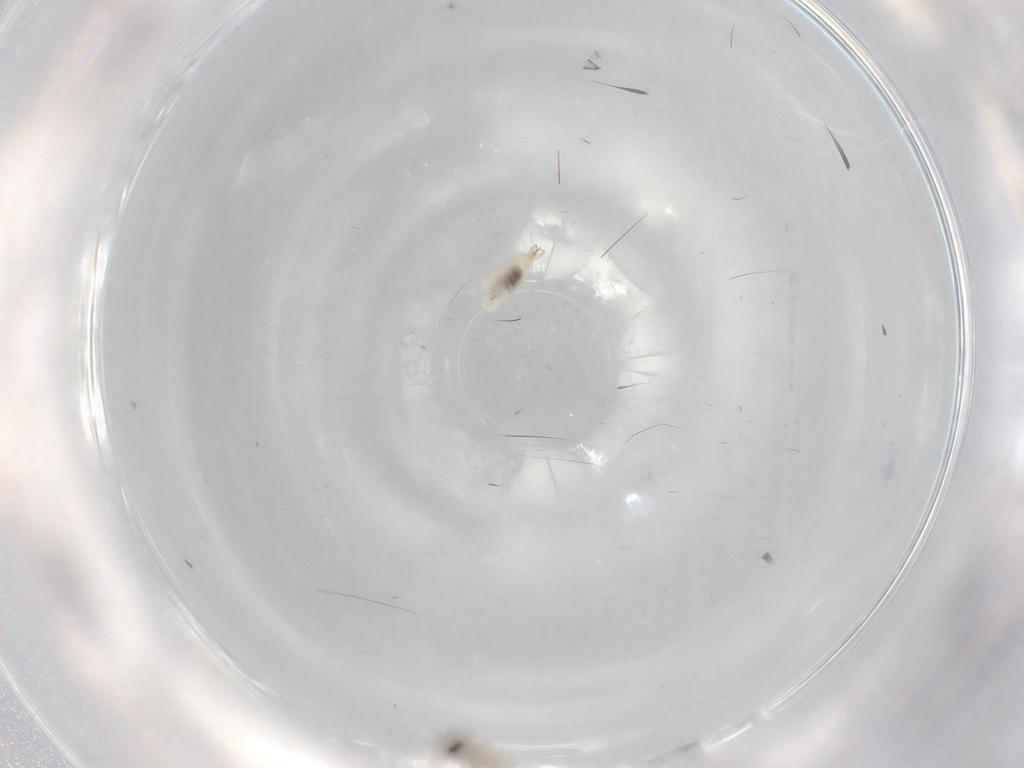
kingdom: Animalia
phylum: Arthropoda
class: Insecta
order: Diptera
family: Cecidomyiidae
